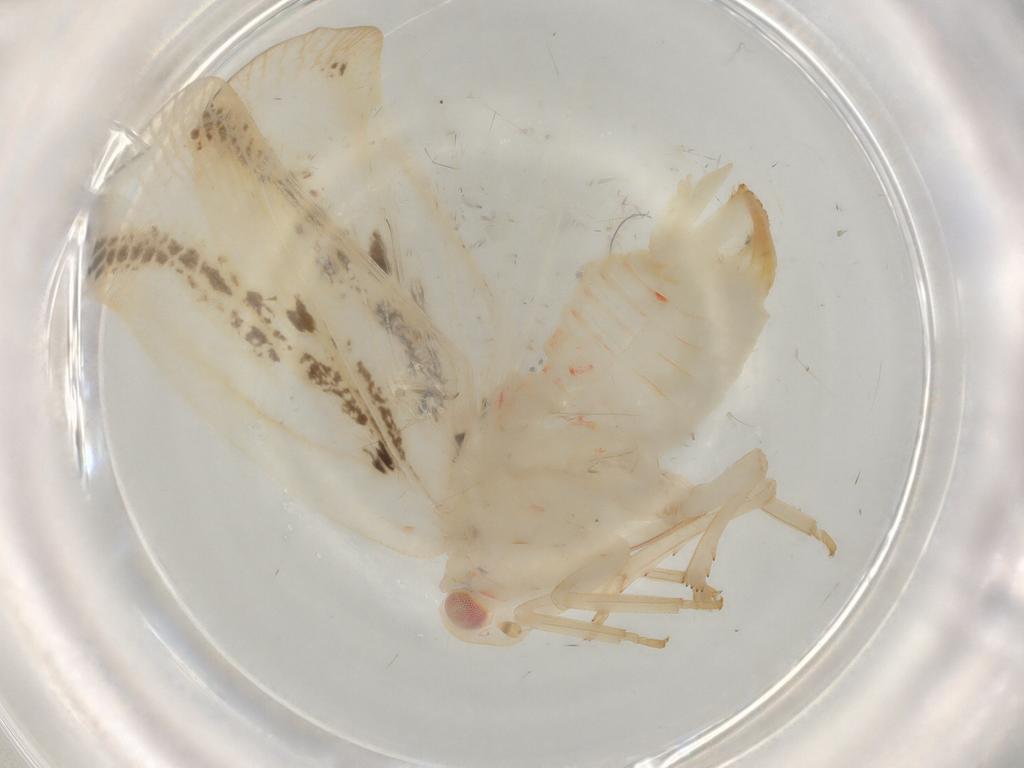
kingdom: Animalia
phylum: Arthropoda
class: Insecta
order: Hemiptera
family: Flatidae
